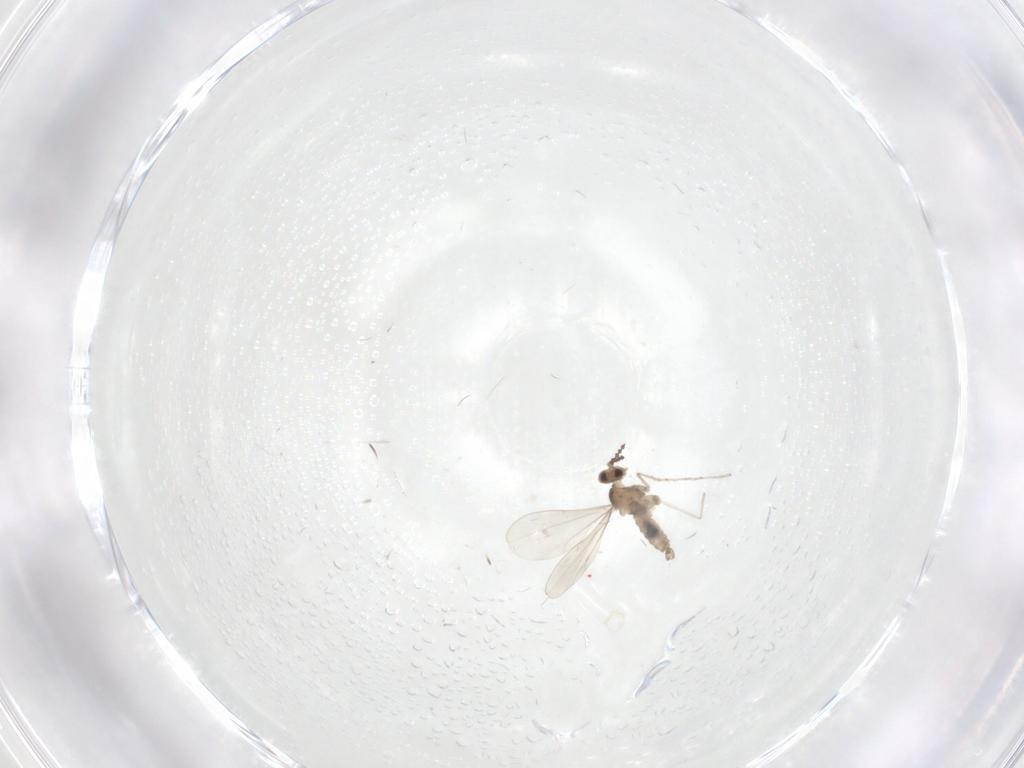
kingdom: Animalia
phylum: Arthropoda
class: Insecta
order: Diptera
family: Cecidomyiidae
